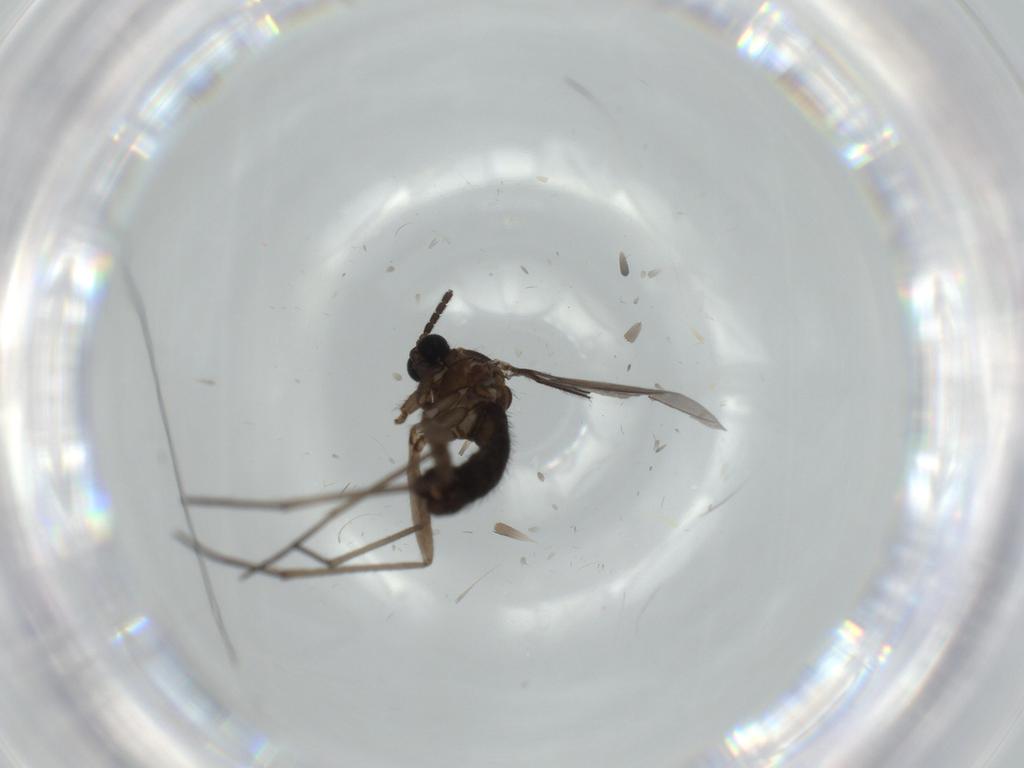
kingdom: Animalia
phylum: Arthropoda
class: Insecta
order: Diptera
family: Sciaridae
